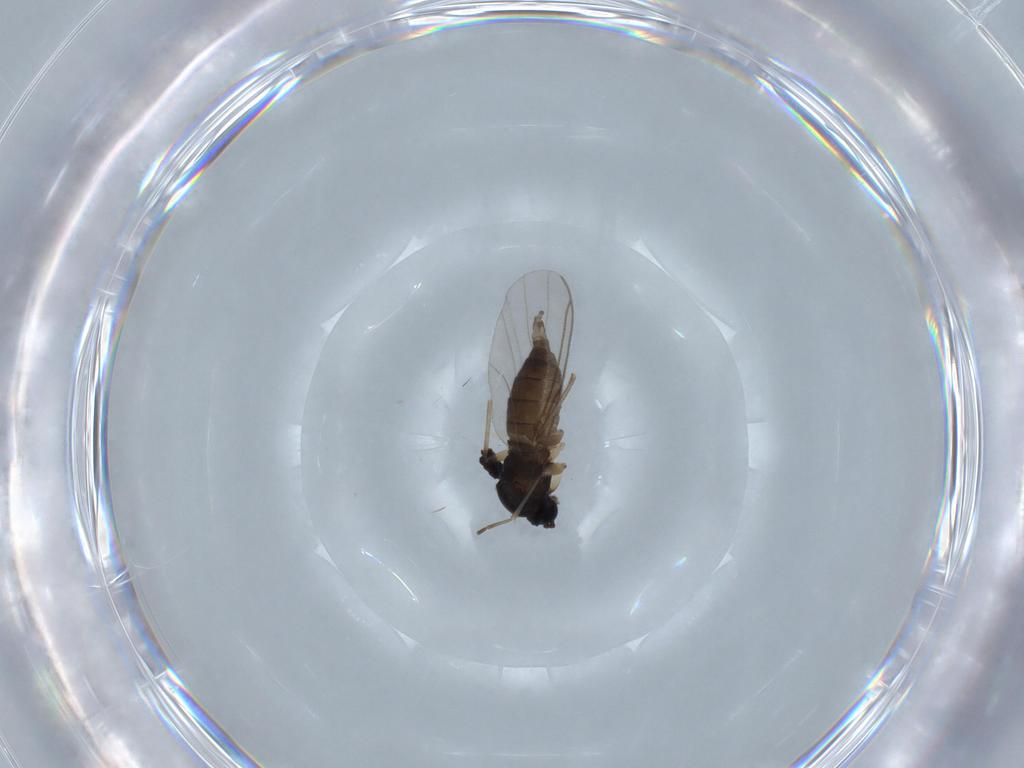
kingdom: Animalia
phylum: Arthropoda
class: Insecta
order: Diptera
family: Sciaridae
